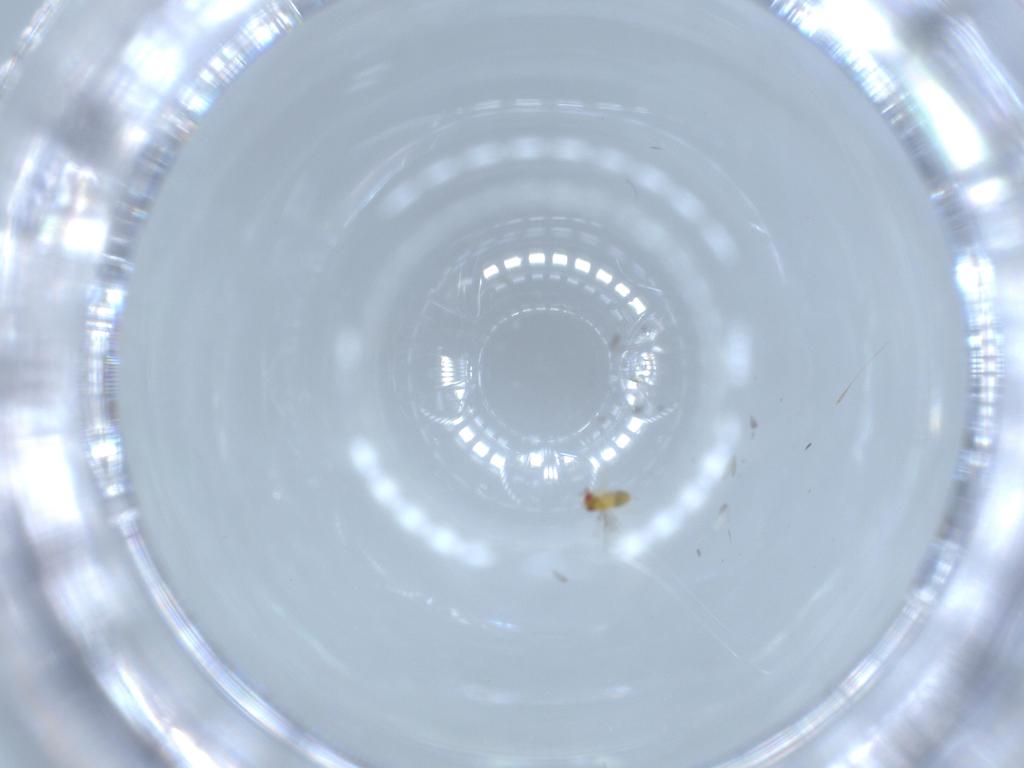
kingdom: Animalia
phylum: Arthropoda
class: Insecta
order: Hymenoptera
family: Trichogrammatidae
